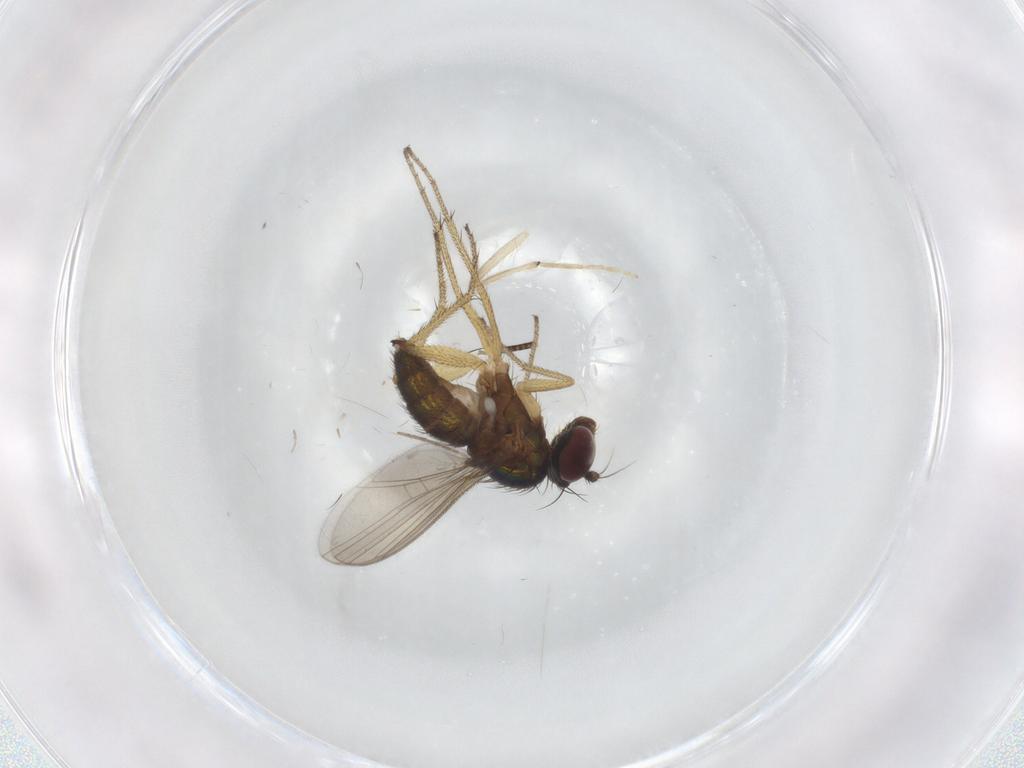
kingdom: Animalia
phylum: Arthropoda
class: Insecta
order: Diptera
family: Chironomidae
